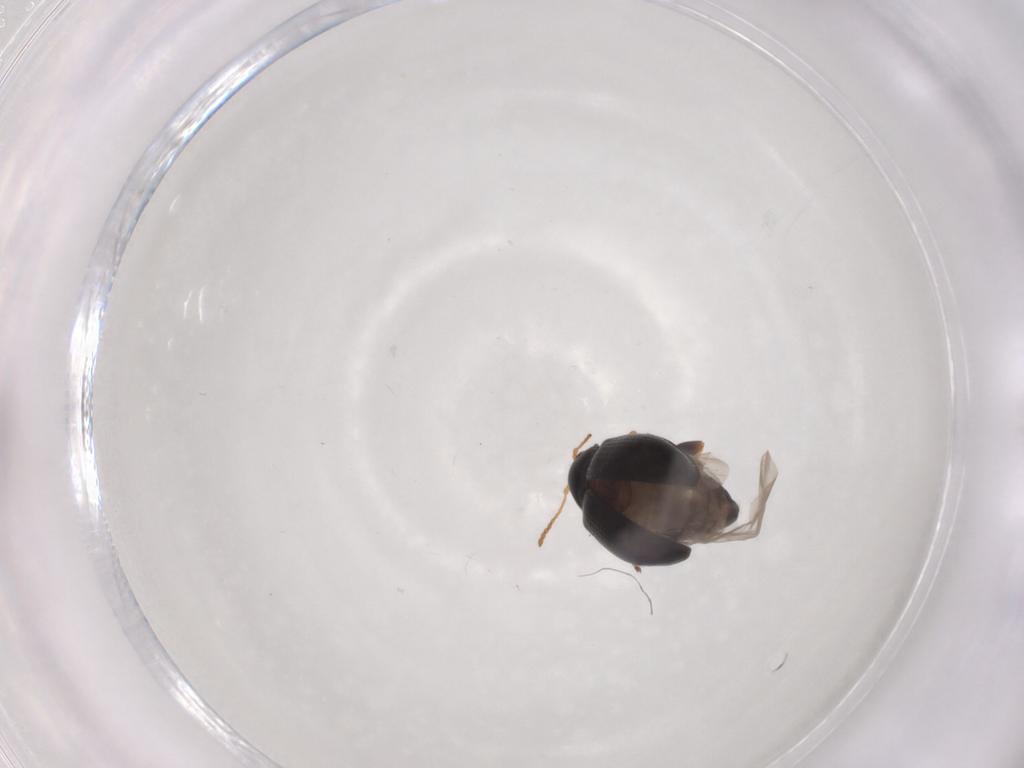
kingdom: Animalia
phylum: Arthropoda
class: Insecta
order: Coleoptera
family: Chrysomelidae
